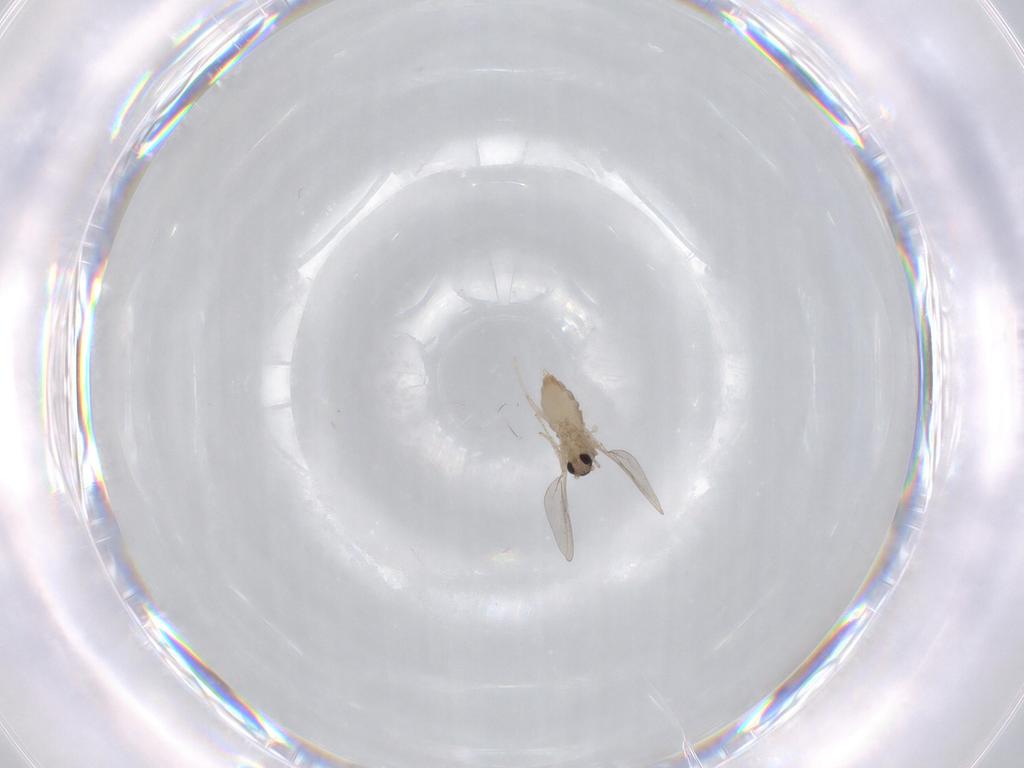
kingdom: Animalia
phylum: Arthropoda
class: Insecta
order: Diptera
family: Cecidomyiidae
